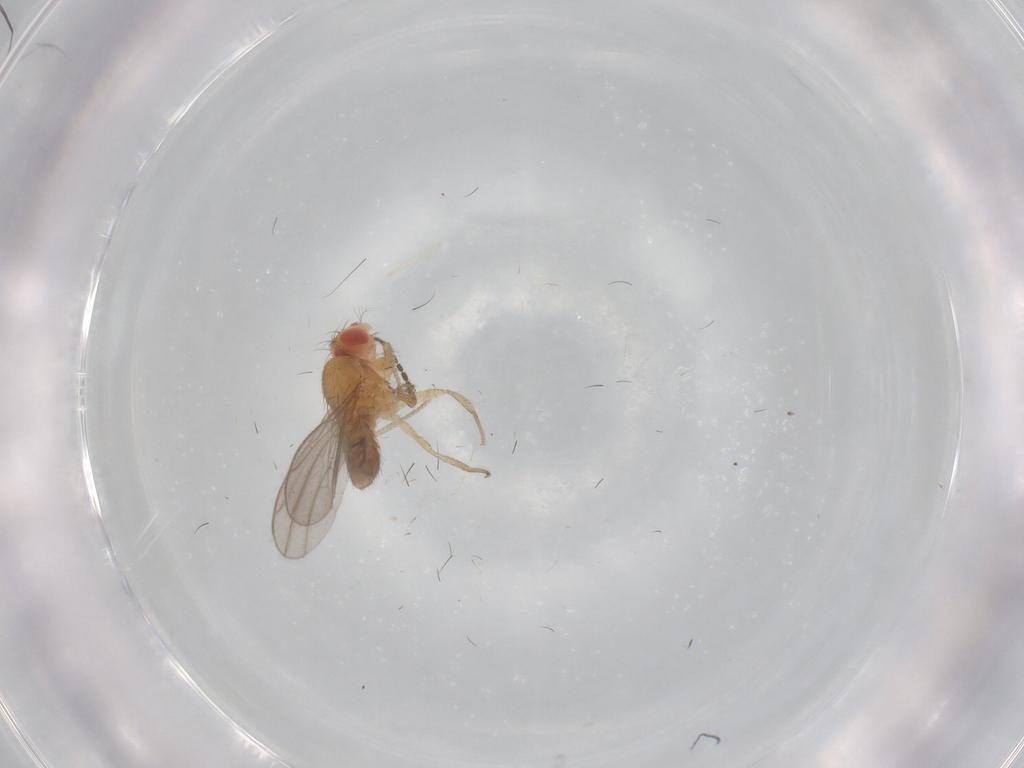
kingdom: Animalia
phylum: Arthropoda
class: Insecta
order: Diptera
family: Drosophilidae
